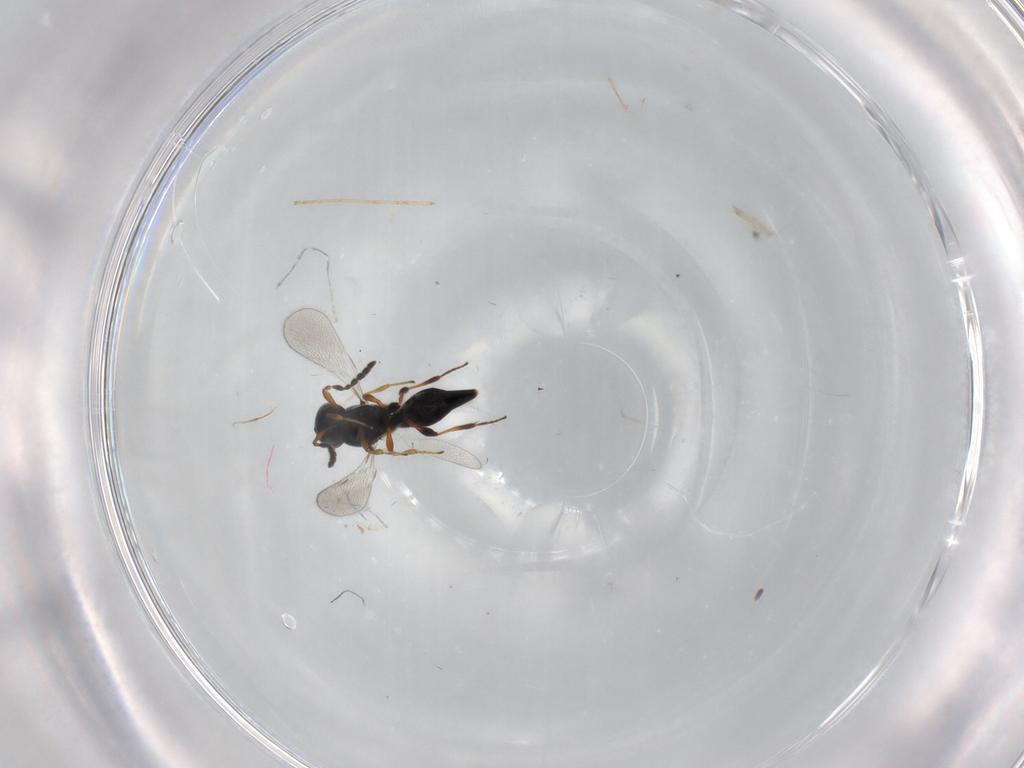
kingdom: Animalia
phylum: Arthropoda
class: Insecta
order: Hymenoptera
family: Platygastridae
